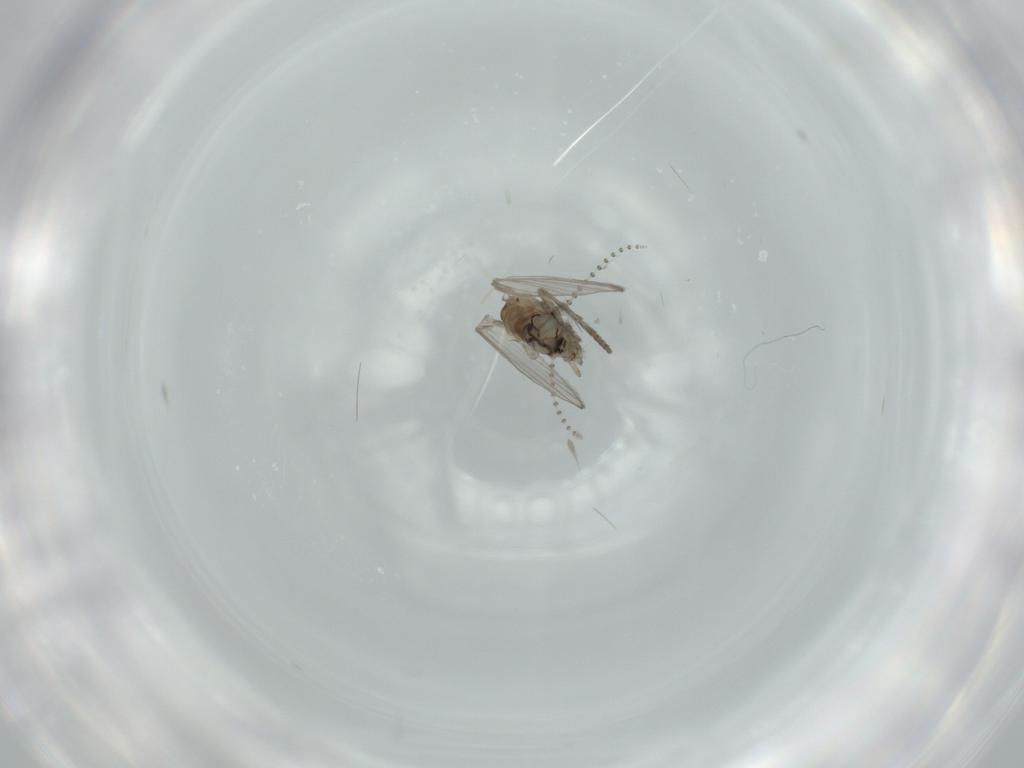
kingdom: Animalia
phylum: Arthropoda
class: Insecta
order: Diptera
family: Psychodidae
